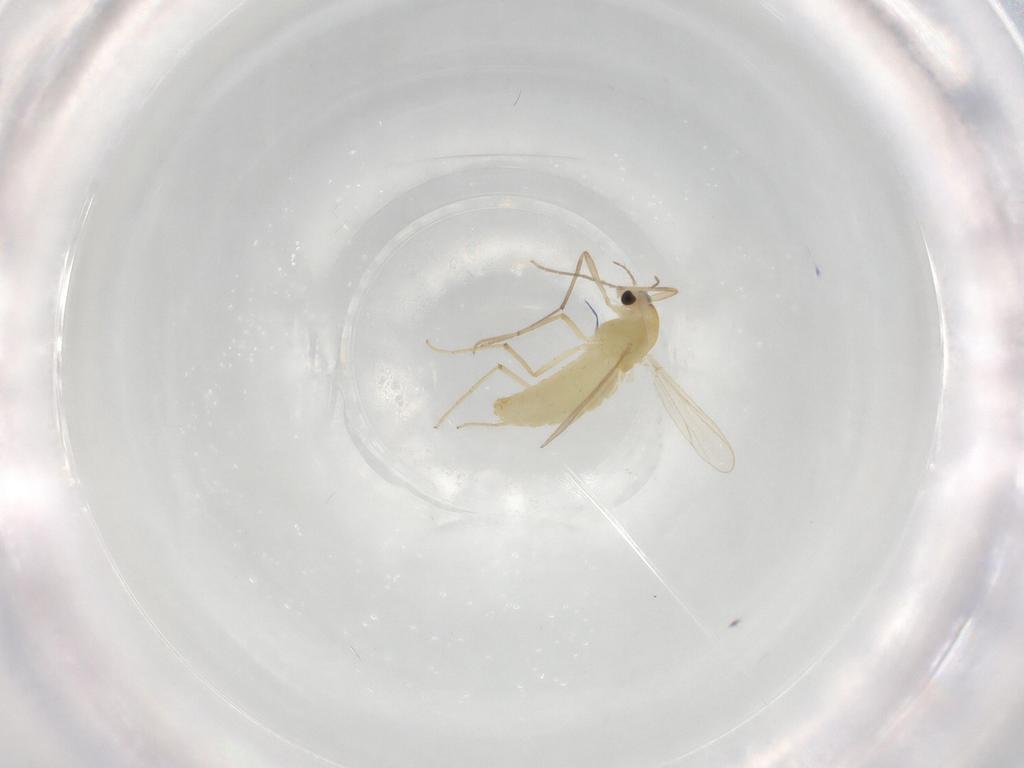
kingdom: Animalia
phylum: Arthropoda
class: Insecta
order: Diptera
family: Chironomidae
